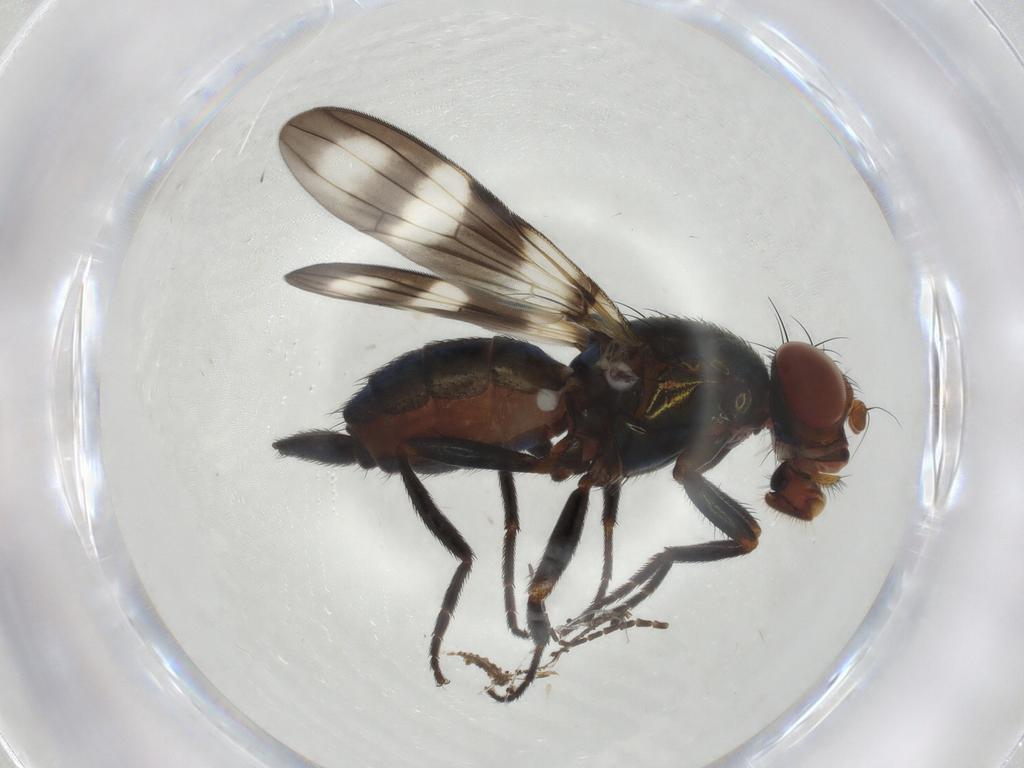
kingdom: Animalia
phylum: Arthropoda
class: Insecta
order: Diptera
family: Ulidiidae
